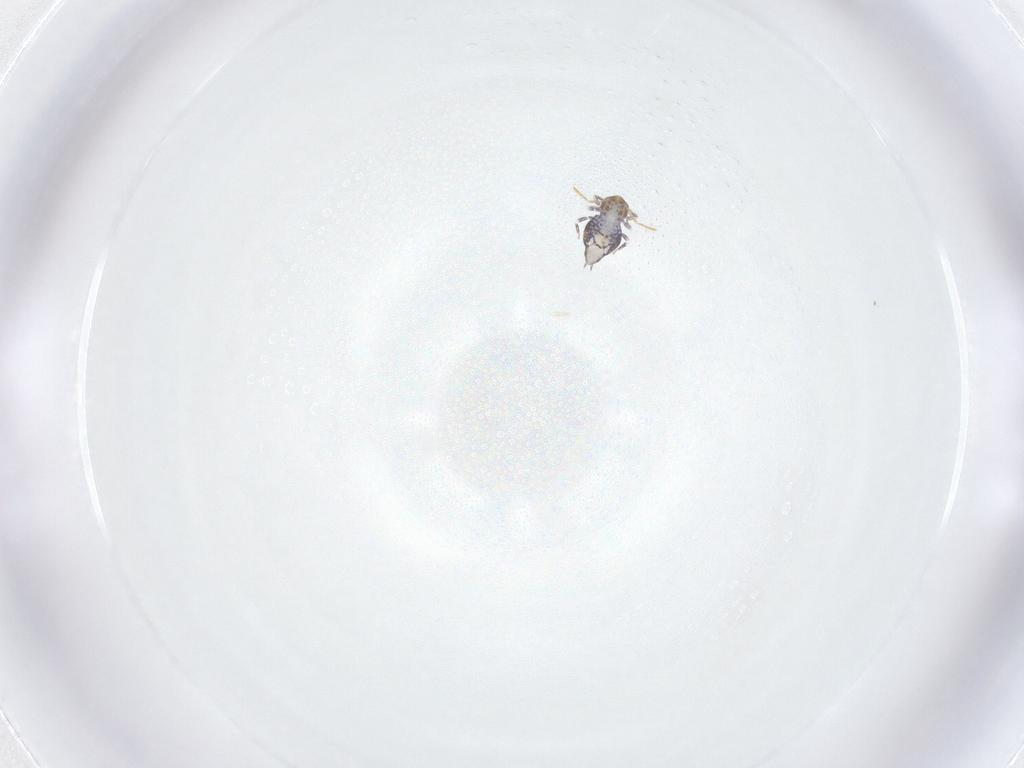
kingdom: Animalia
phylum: Arthropoda
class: Collembola
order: Symphypleona
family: Katiannidae
